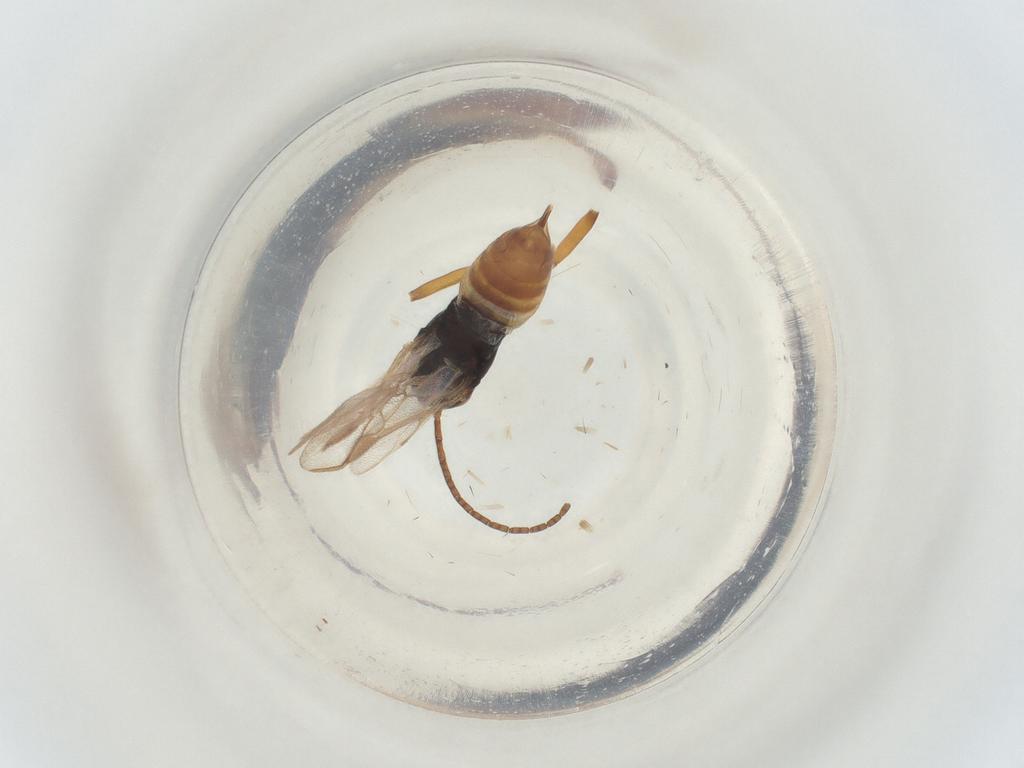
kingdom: Animalia
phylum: Arthropoda
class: Insecta
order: Hymenoptera
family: Braconidae
